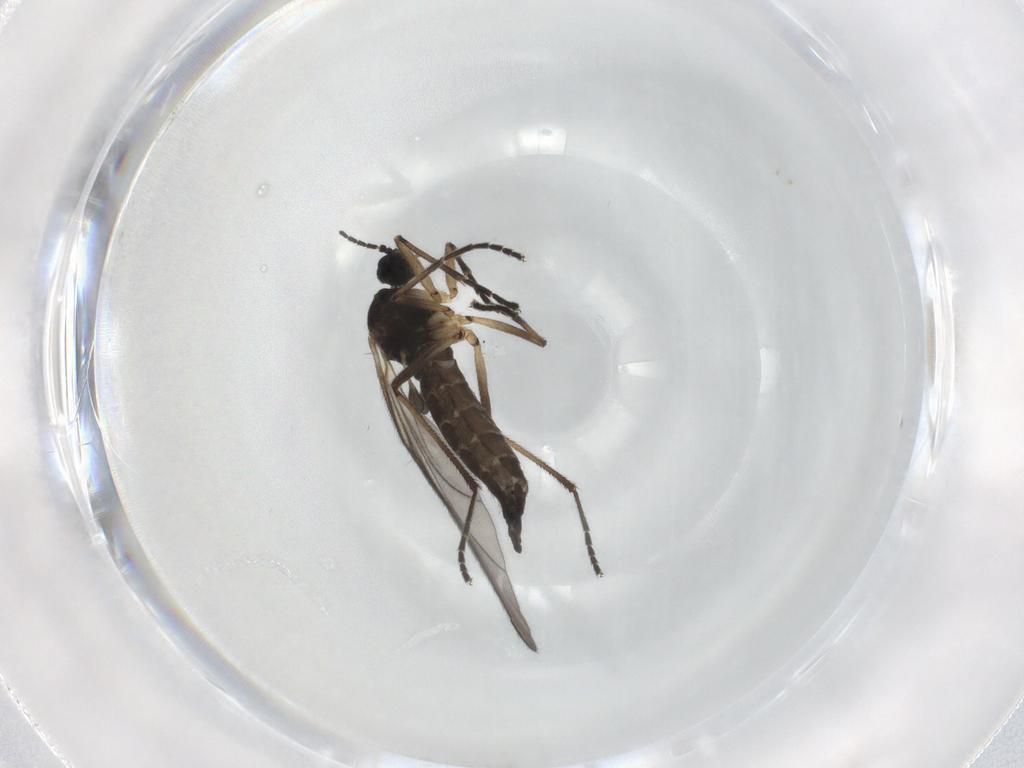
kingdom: Animalia
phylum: Arthropoda
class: Insecta
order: Diptera
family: Sciaridae
